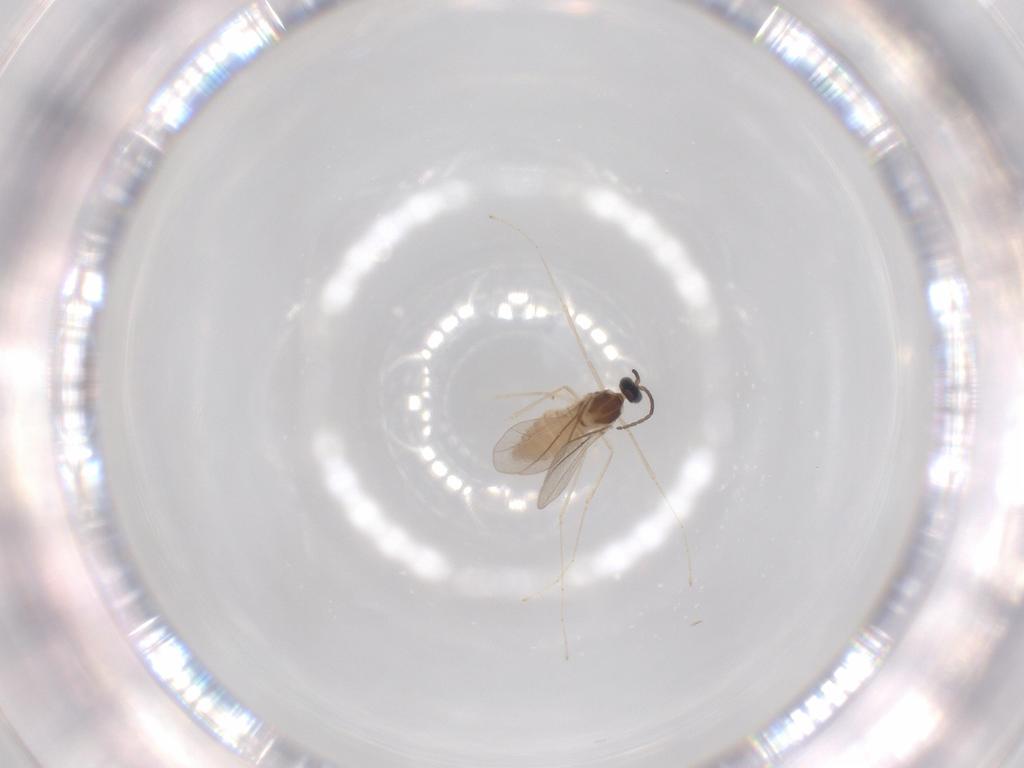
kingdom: Animalia
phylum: Arthropoda
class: Insecta
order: Diptera
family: Cecidomyiidae
